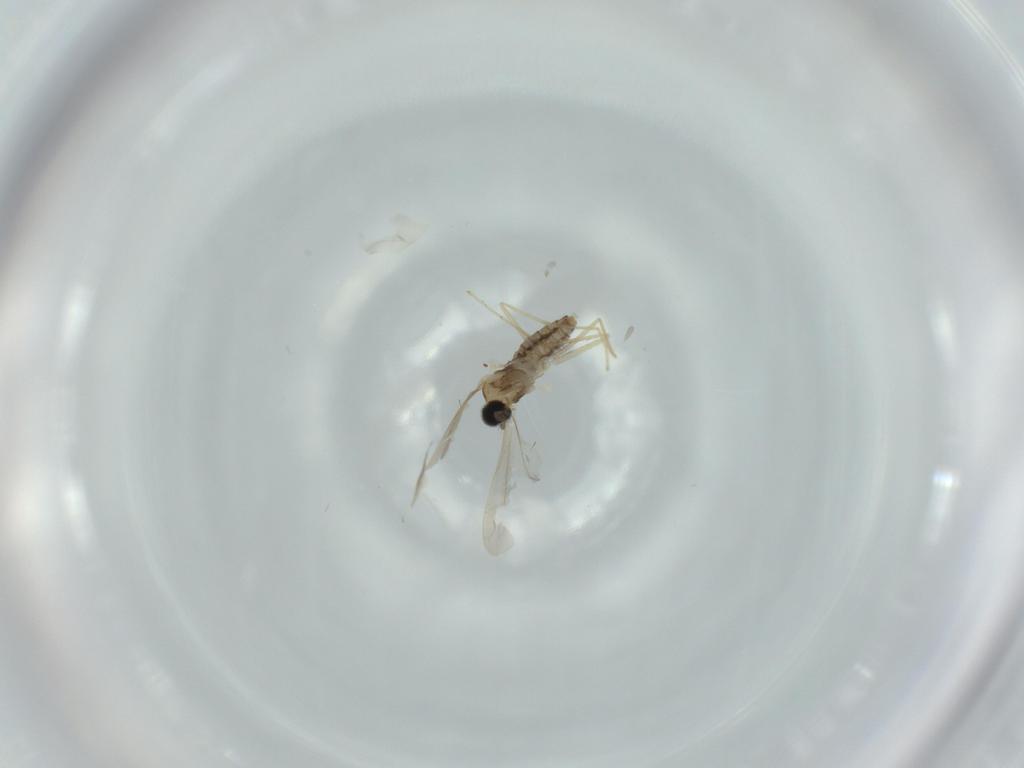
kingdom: Animalia
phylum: Arthropoda
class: Insecta
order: Diptera
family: Cecidomyiidae
